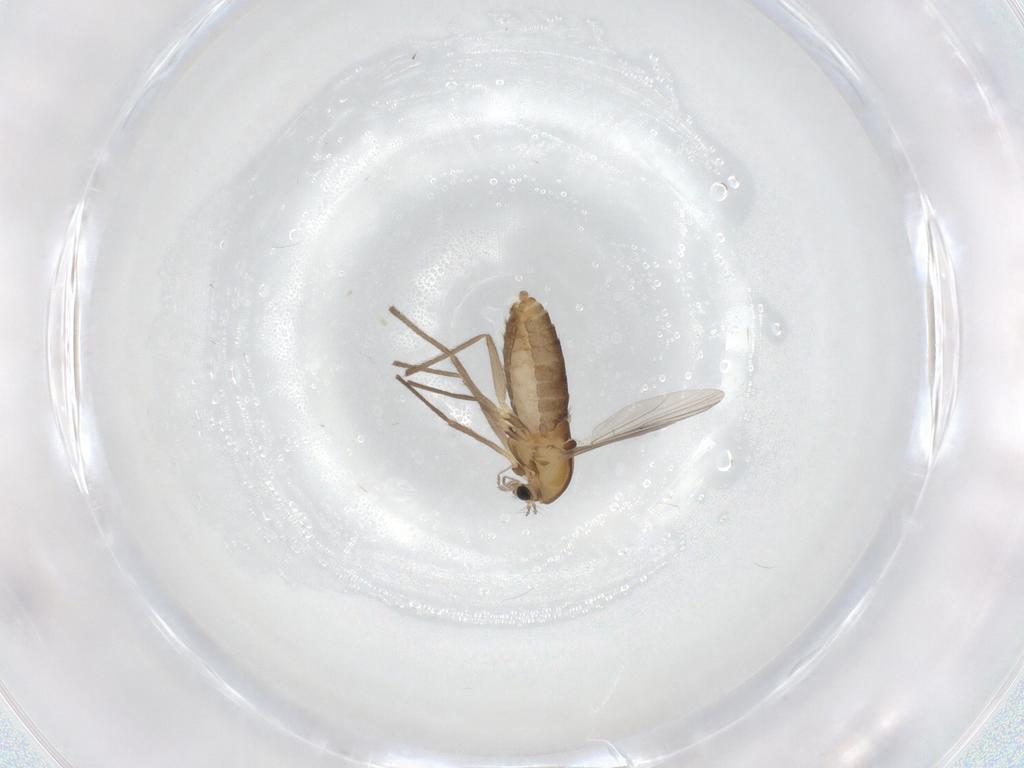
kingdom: Animalia
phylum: Arthropoda
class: Insecta
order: Diptera
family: Chironomidae
